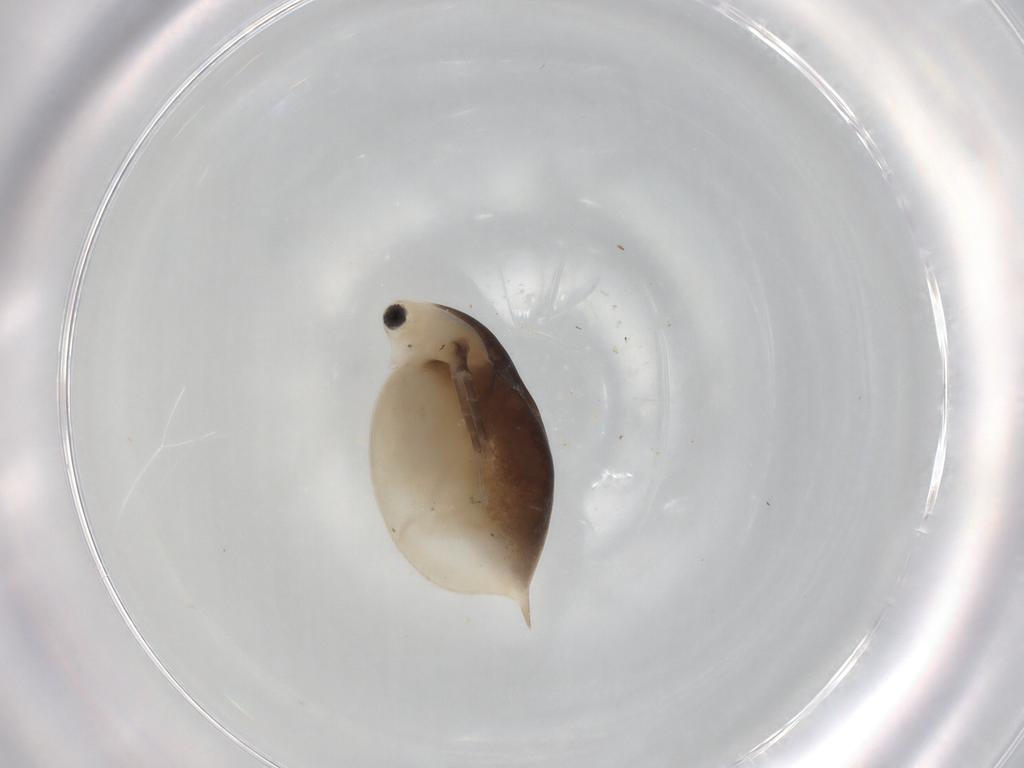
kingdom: Animalia
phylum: Arthropoda
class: Branchiopoda
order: Diplostraca
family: Daphniidae
